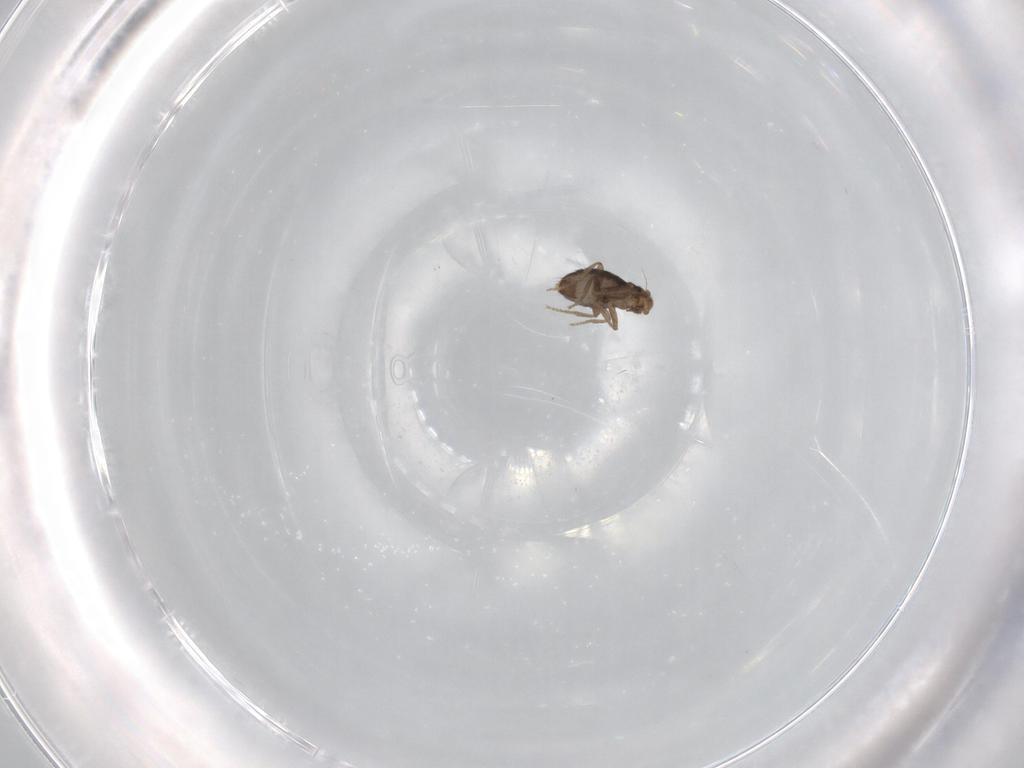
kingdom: Animalia
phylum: Arthropoda
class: Insecta
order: Diptera
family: Phoridae
